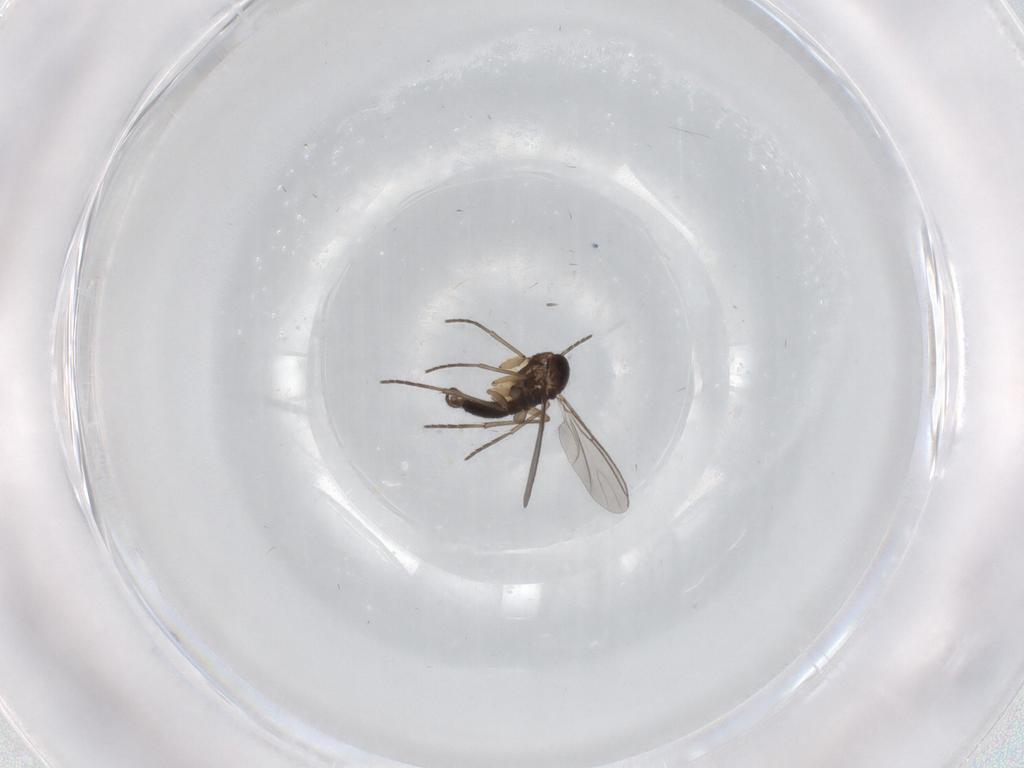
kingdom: Animalia
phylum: Arthropoda
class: Insecta
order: Diptera
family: Sciaridae
